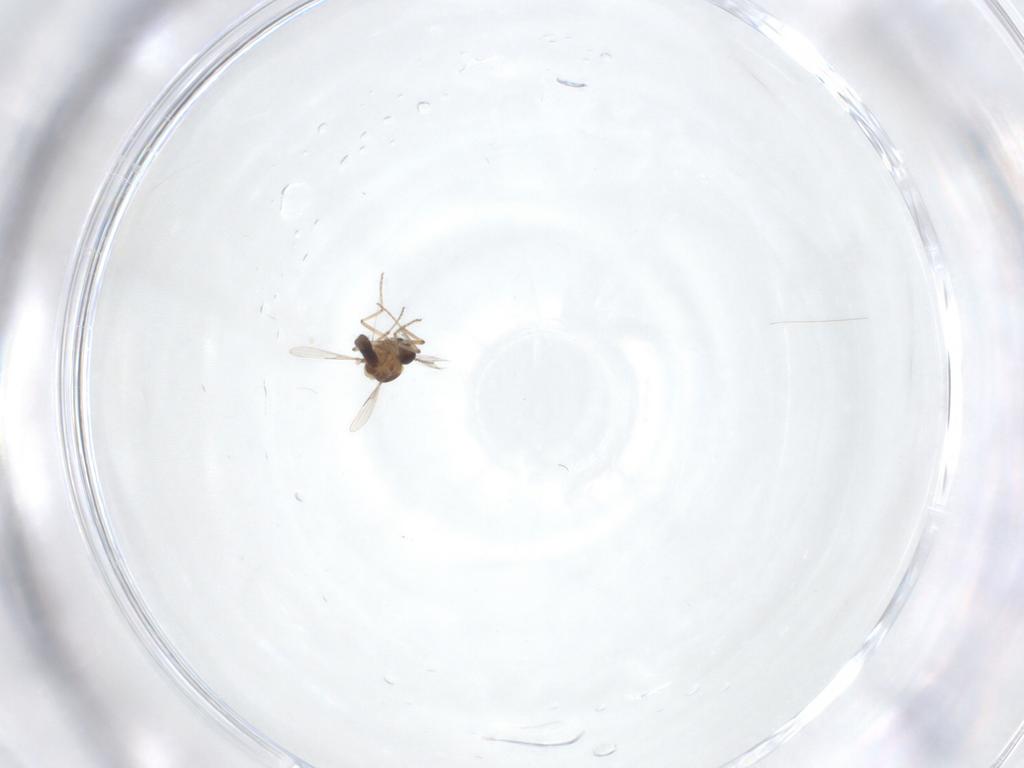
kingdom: Animalia
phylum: Arthropoda
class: Insecta
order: Diptera
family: Ceratopogonidae
